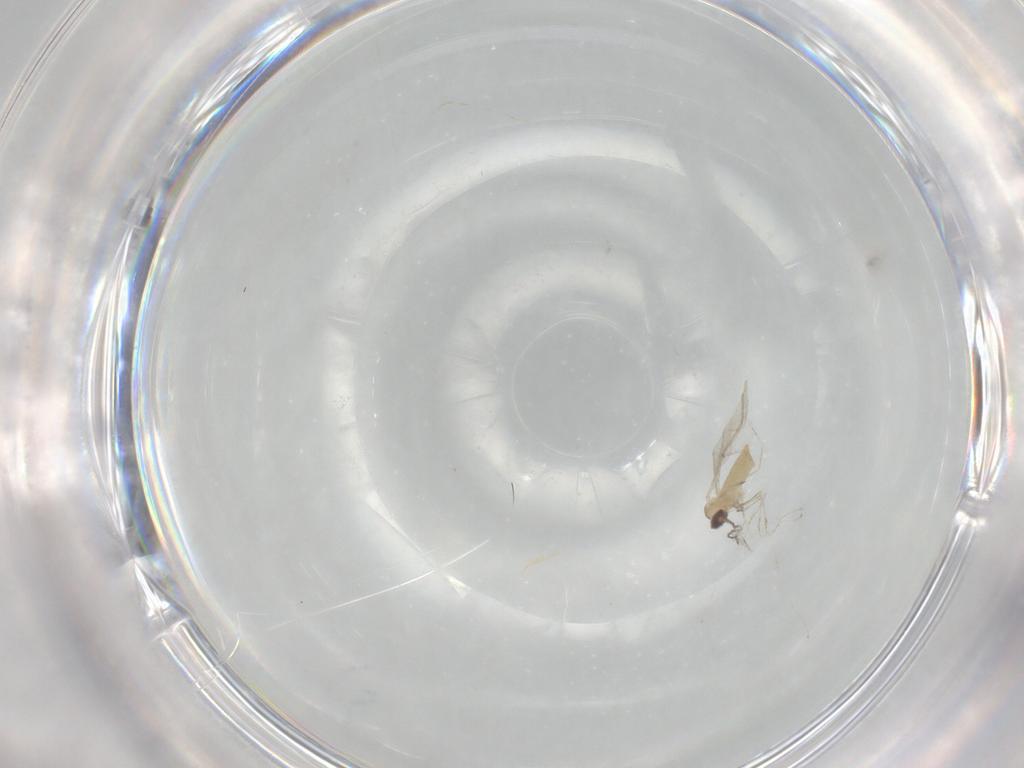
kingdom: Animalia
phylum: Arthropoda
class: Insecta
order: Diptera
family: Cecidomyiidae
